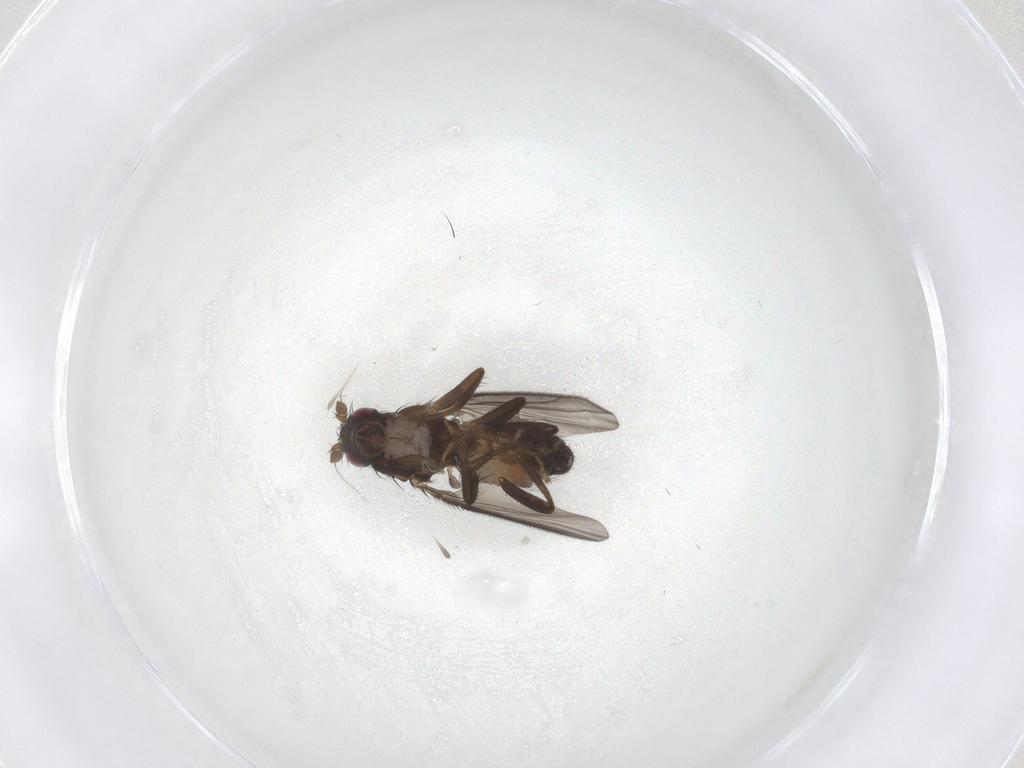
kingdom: Animalia
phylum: Arthropoda
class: Insecta
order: Diptera
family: Sphaeroceridae
